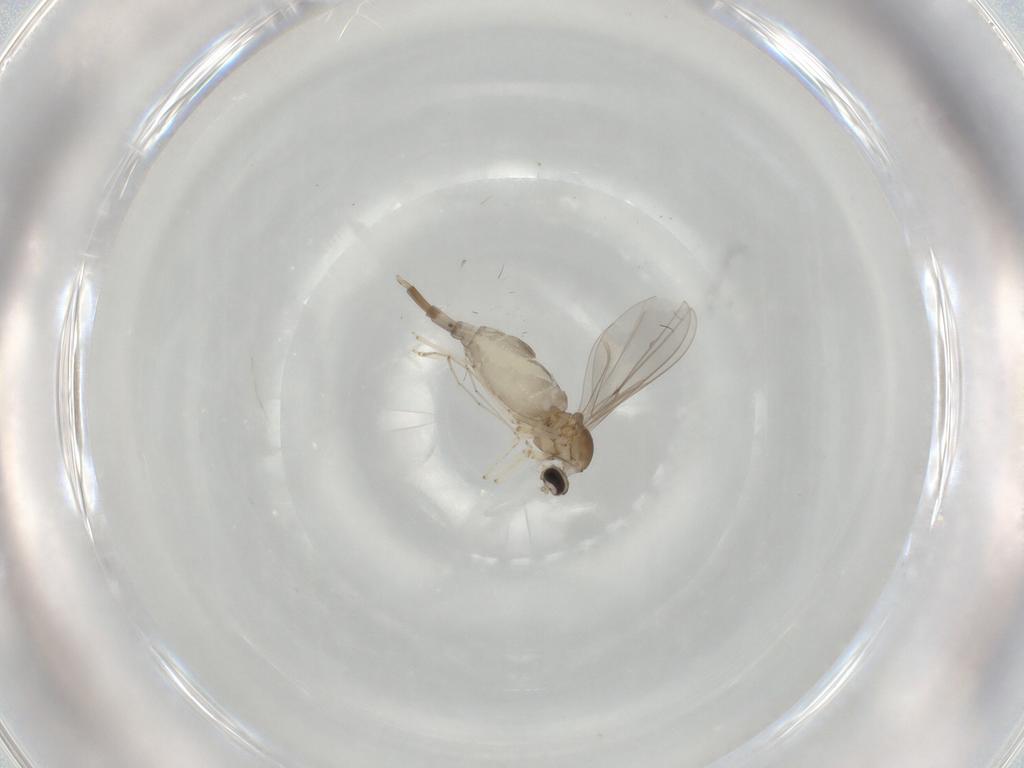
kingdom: Animalia
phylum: Arthropoda
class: Insecta
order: Diptera
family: Cecidomyiidae
